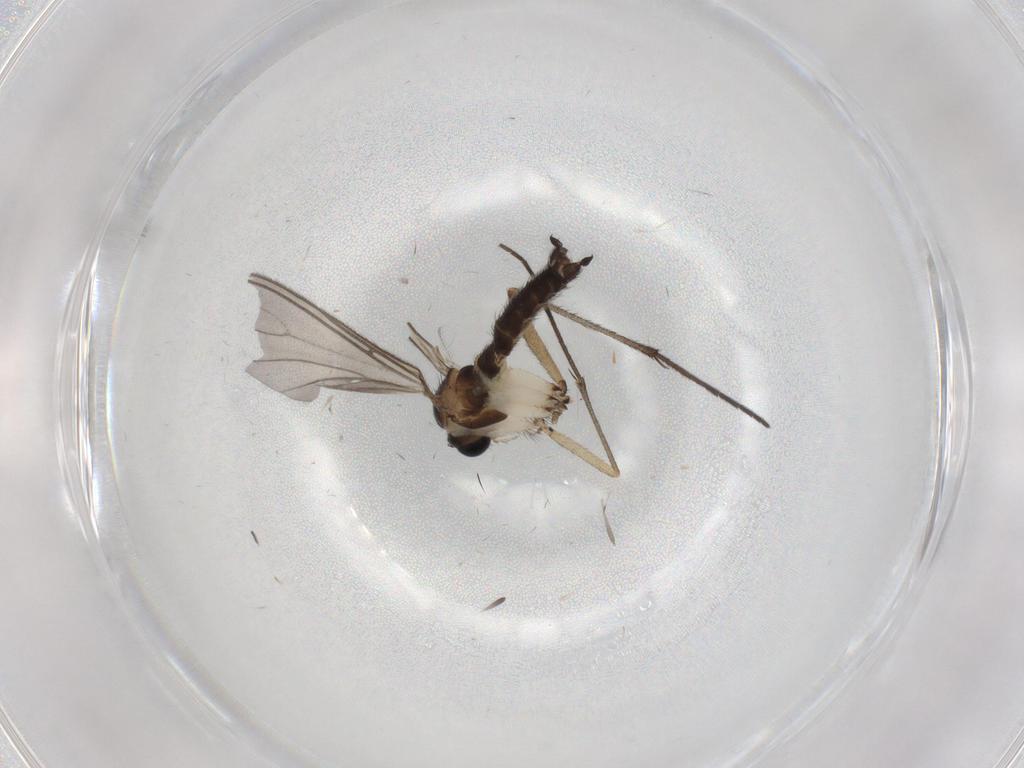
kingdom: Animalia
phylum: Arthropoda
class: Insecta
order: Diptera
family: Sciaridae
